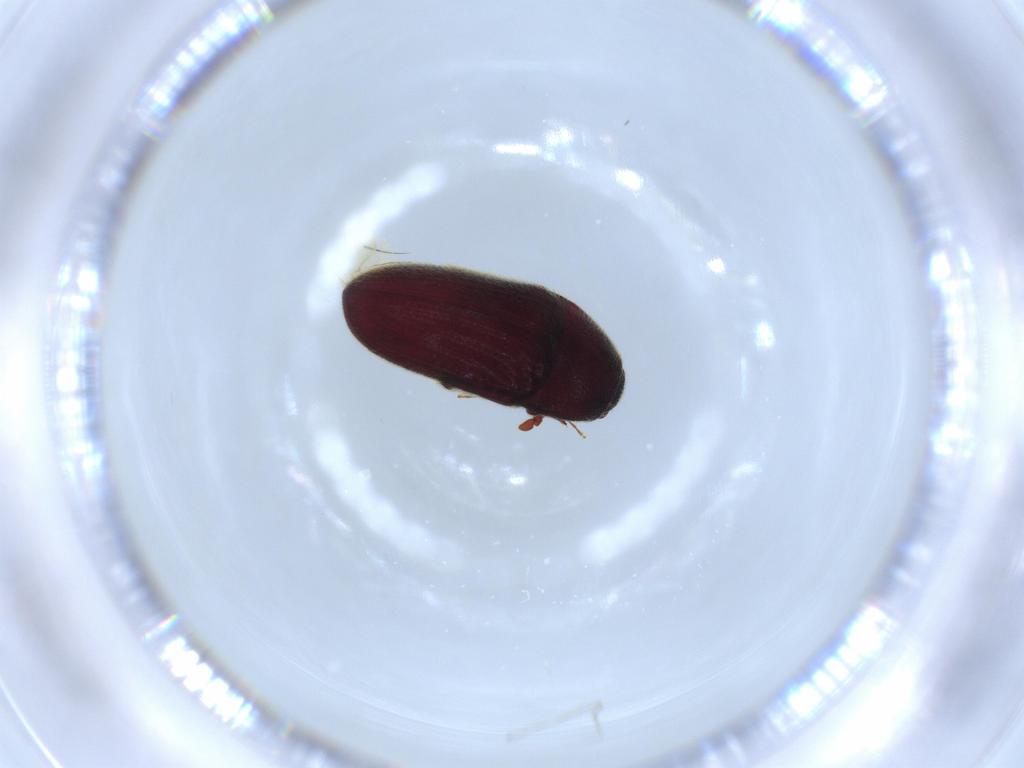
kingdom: Animalia
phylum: Arthropoda
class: Insecta
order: Coleoptera
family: Throscidae
